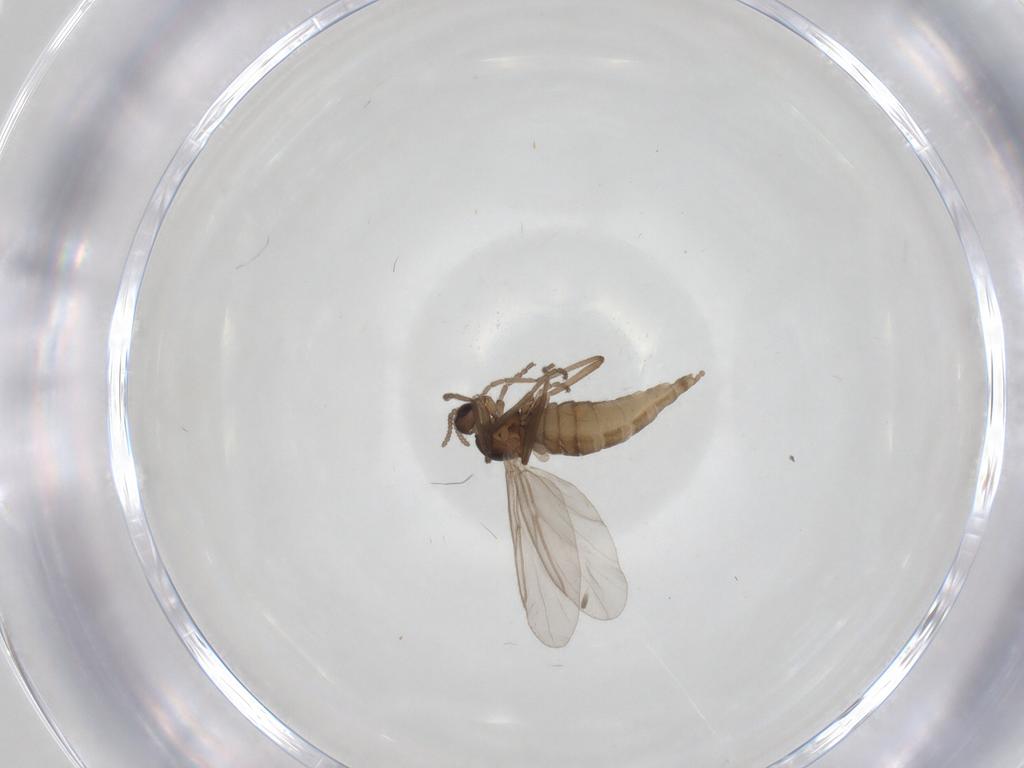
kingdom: Animalia
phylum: Arthropoda
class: Insecta
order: Diptera
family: Cecidomyiidae
